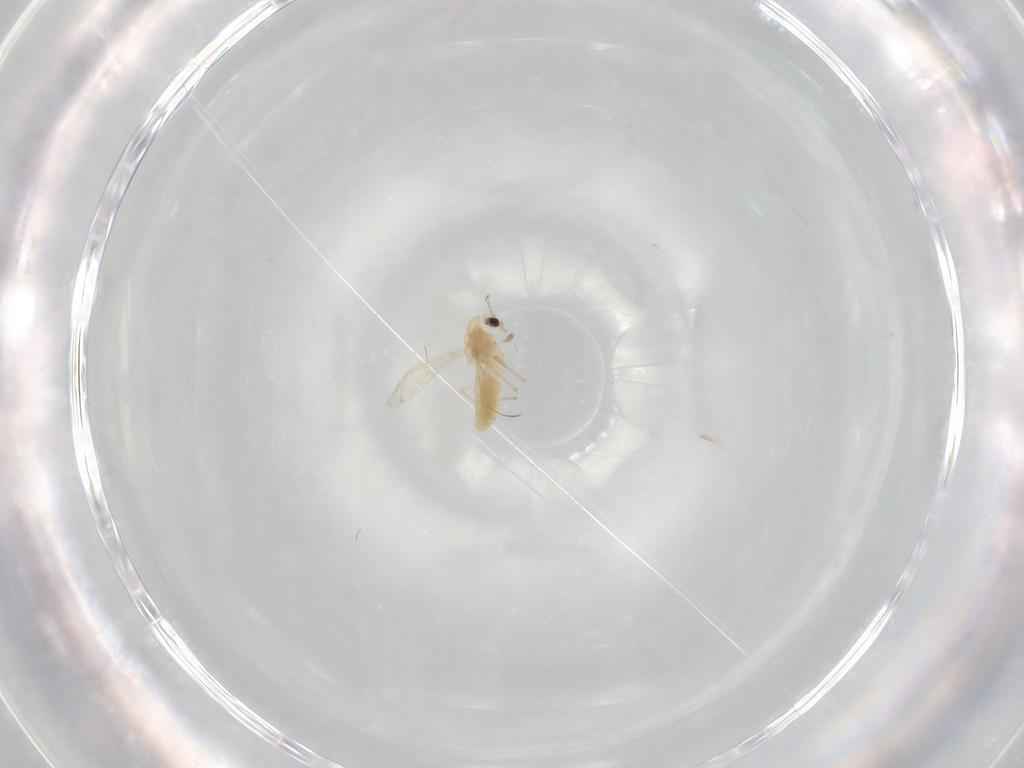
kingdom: Animalia
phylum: Arthropoda
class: Insecta
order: Diptera
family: Chironomidae
